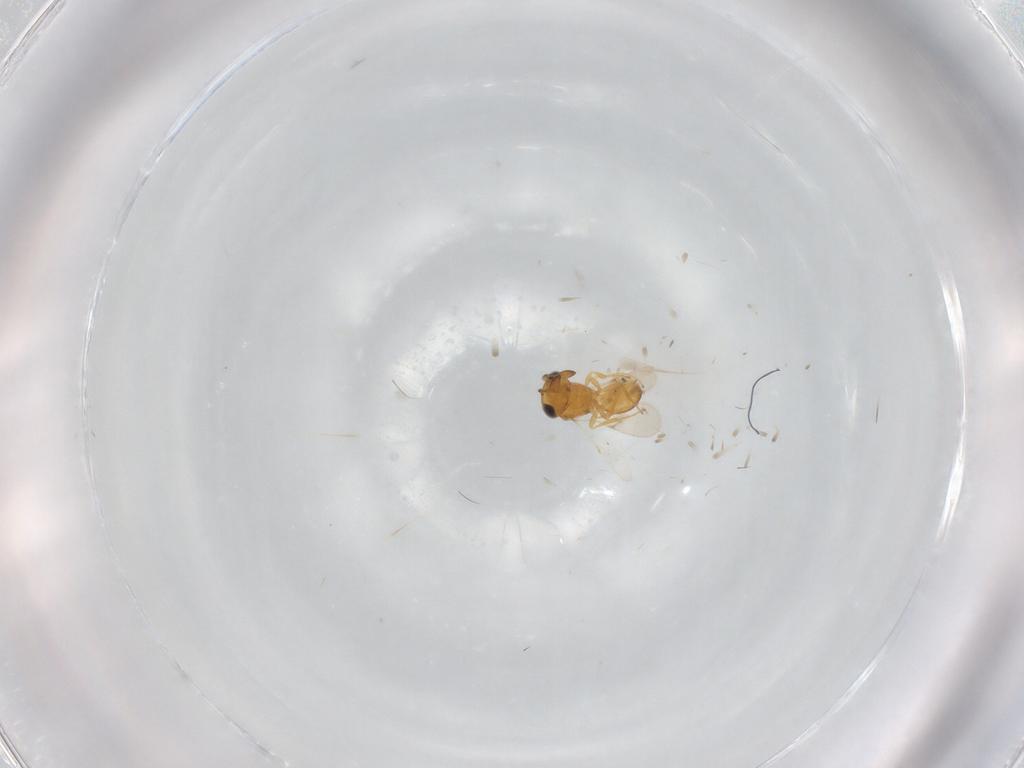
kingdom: Animalia
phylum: Arthropoda
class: Insecta
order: Hymenoptera
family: Scelionidae
